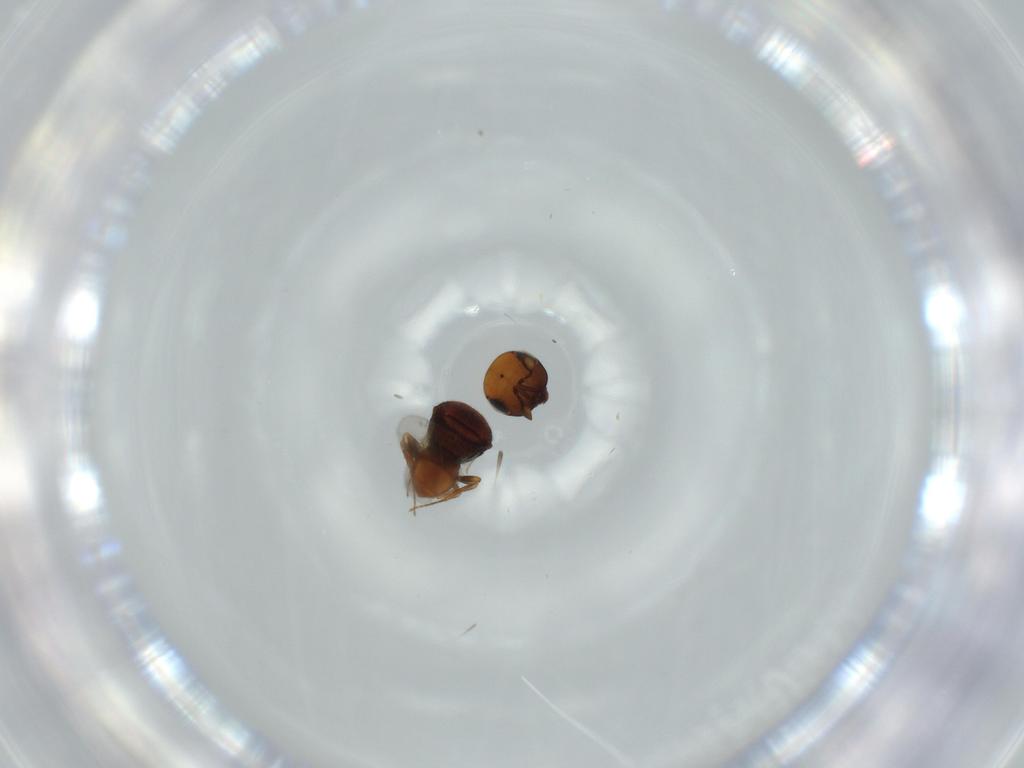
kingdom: Animalia
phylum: Arthropoda
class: Insecta
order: Hymenoptera
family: Scelionidae
